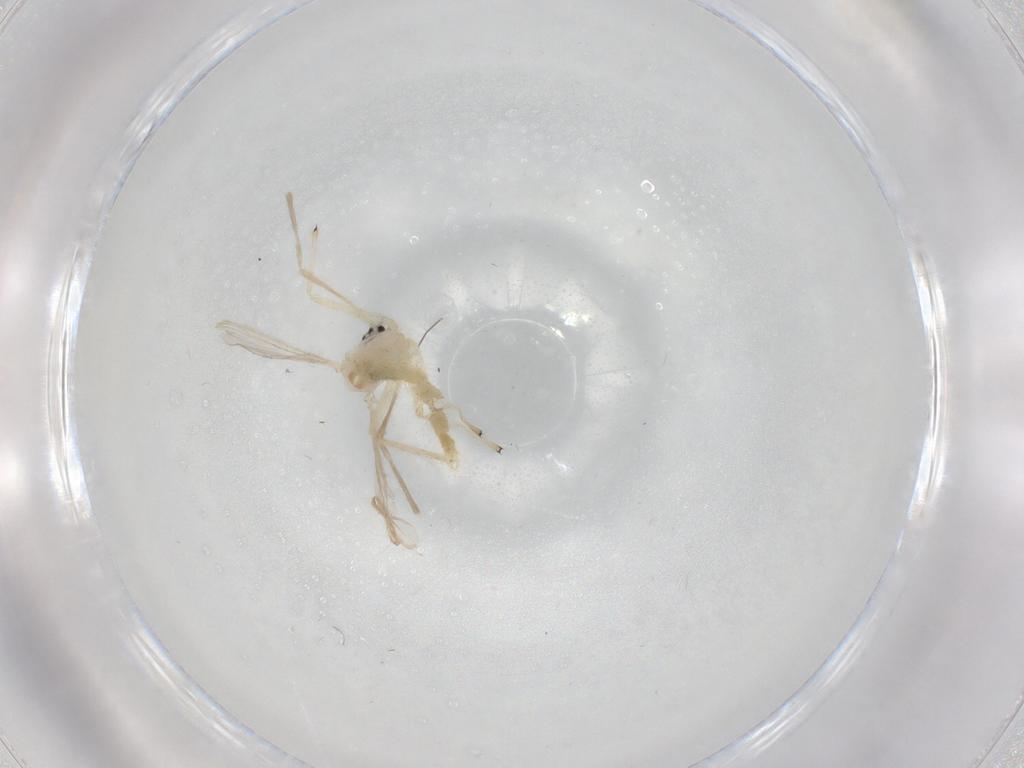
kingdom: Animalia
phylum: Arthropoda
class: Insecta
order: Diptera
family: Chironomidae
